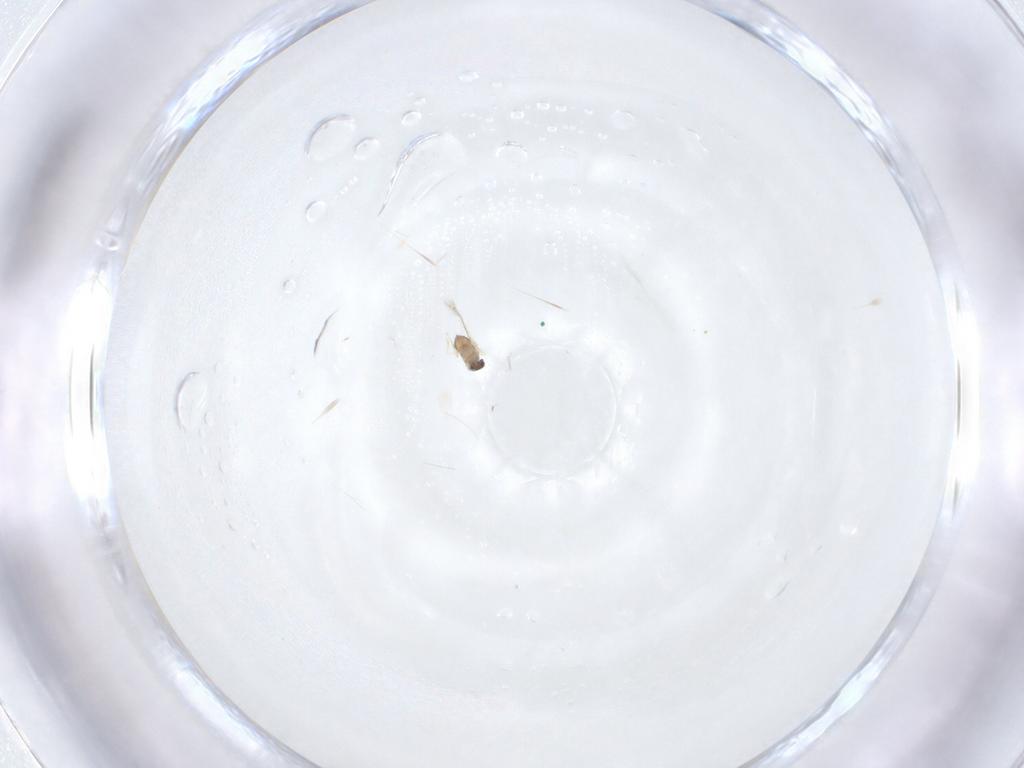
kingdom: Animalia
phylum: Arthropoda
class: Insecta
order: Hymenoptera
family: Mymaridae
